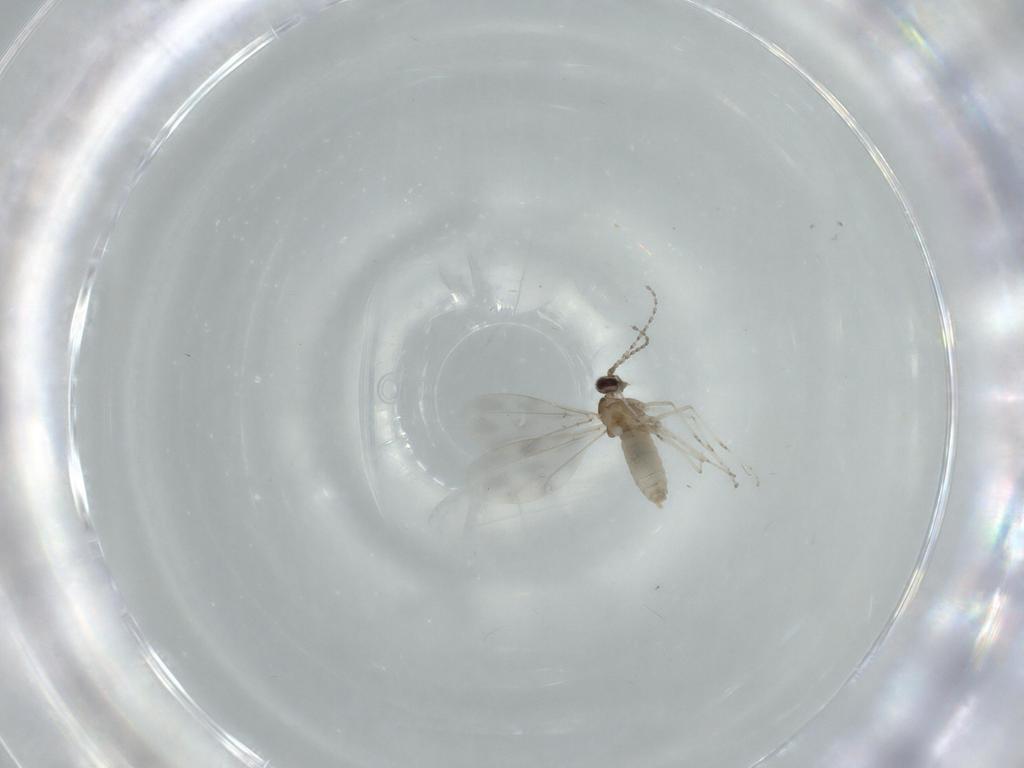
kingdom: Animalia
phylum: Arthropoda
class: Insecta
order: Diptera
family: Cecidomyiidae
